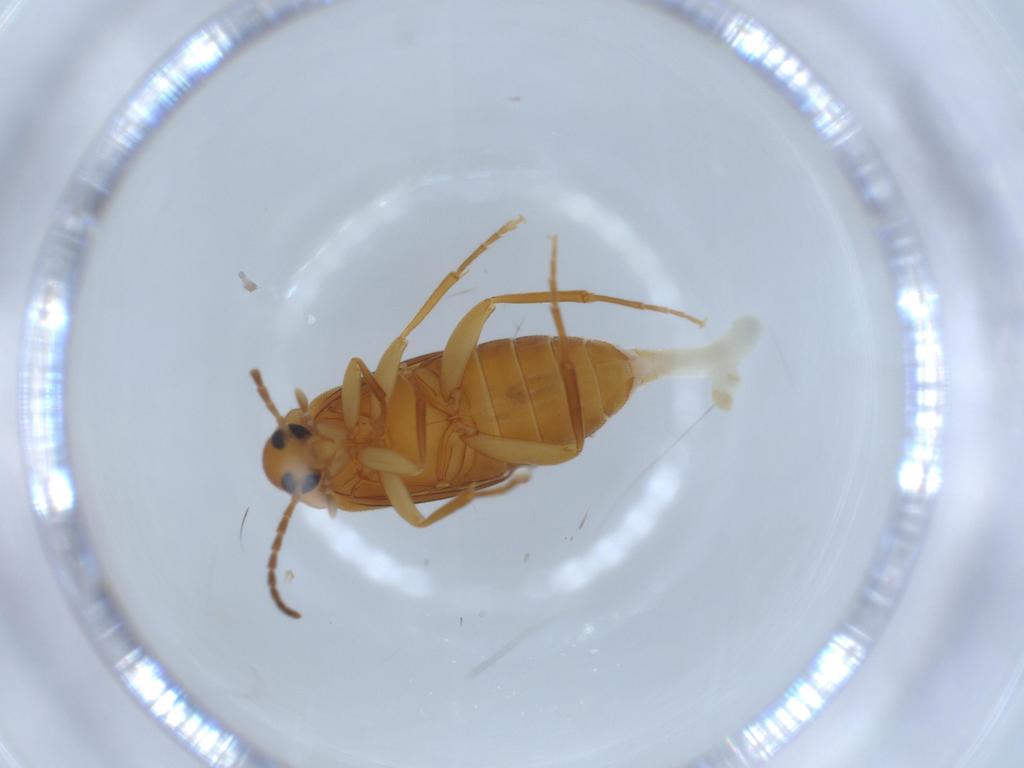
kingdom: Animalia
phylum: Arthropoda
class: Insecta
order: Coleoptera
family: Scraptiidae
